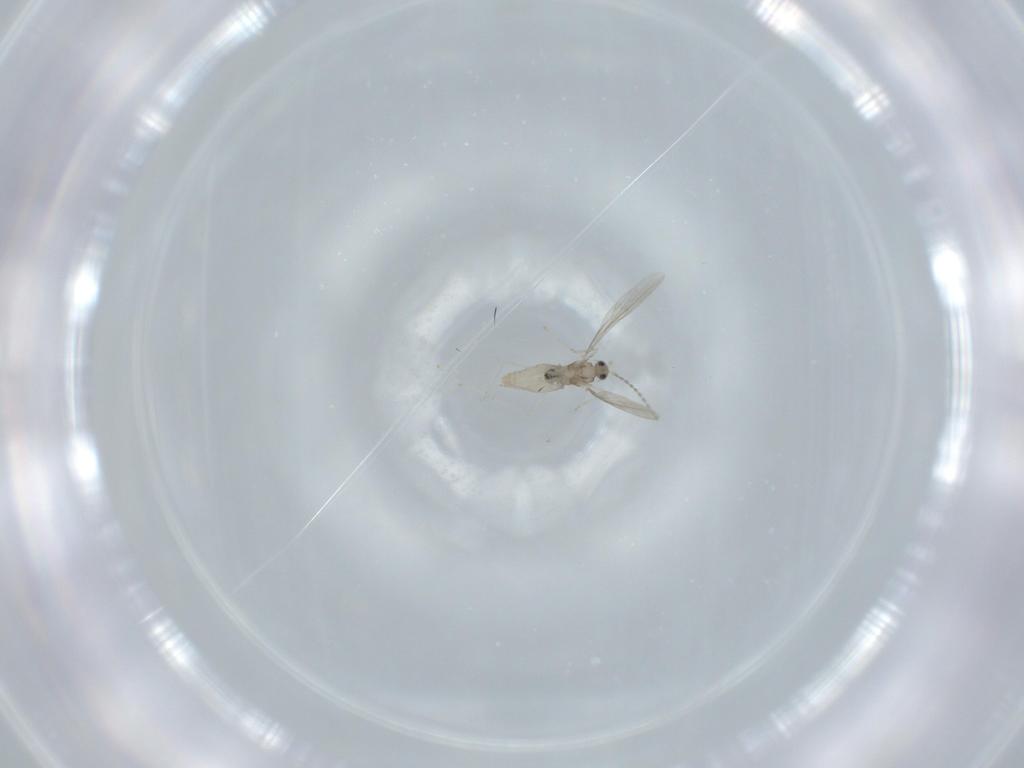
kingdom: Animalia
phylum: Arthropoda
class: Insecta
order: Diptera
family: Cecidomyiidae
